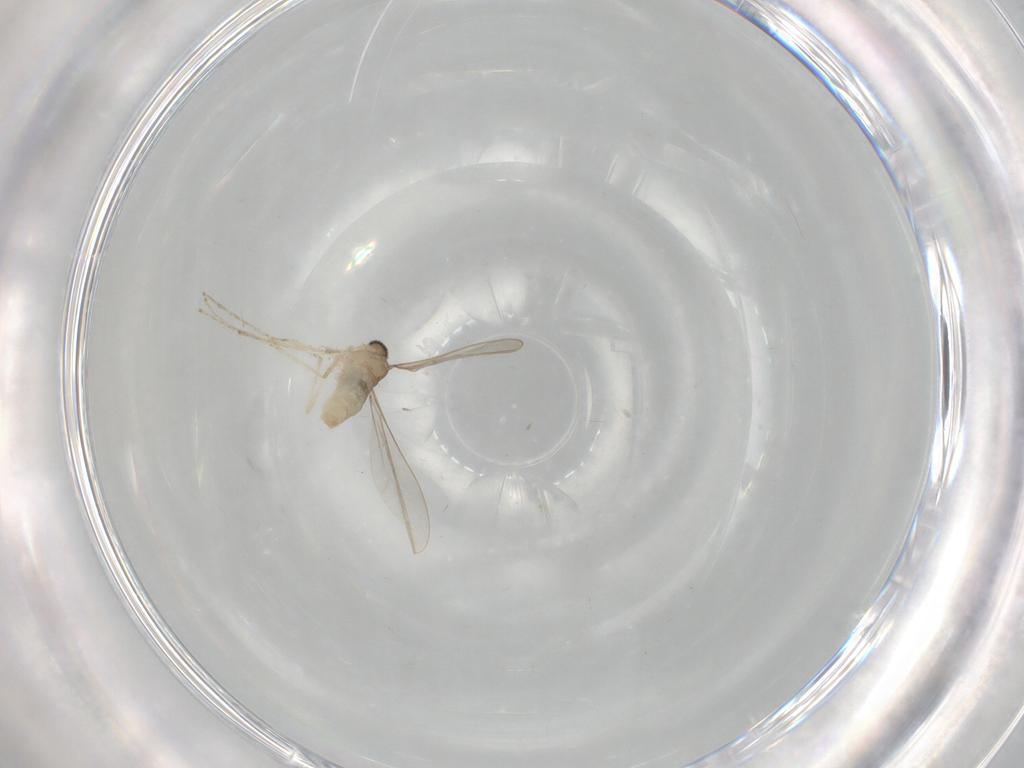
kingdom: Animalia
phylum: Arthropoda
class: Insecta
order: Diptera
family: Cecidomyiidae
